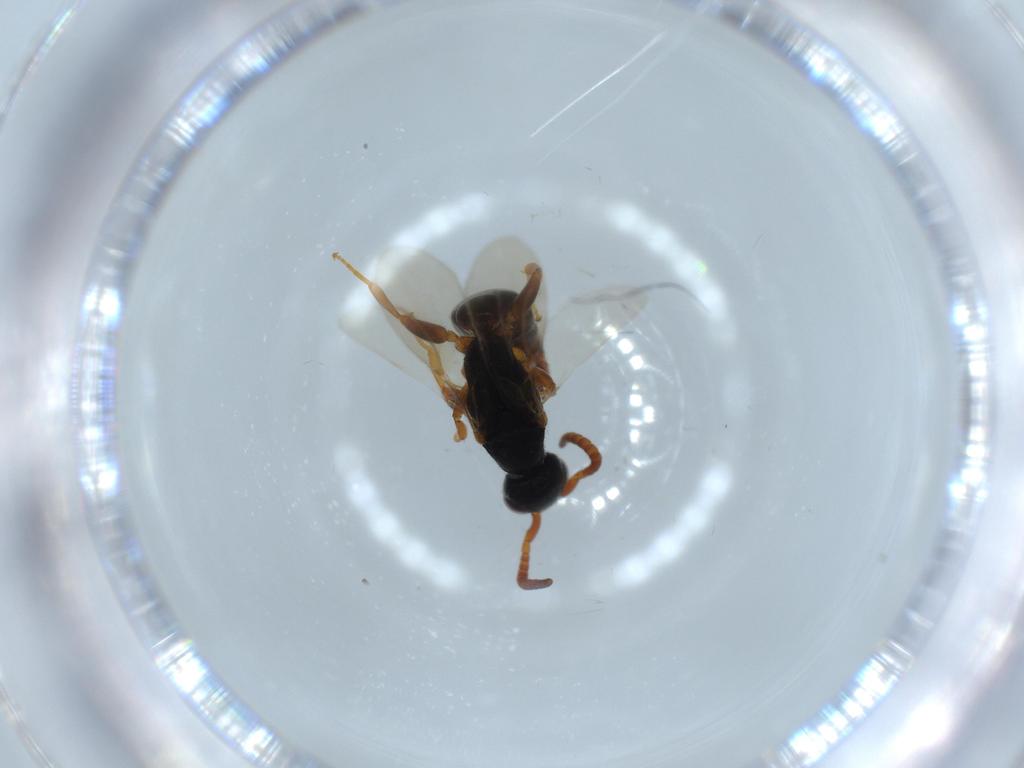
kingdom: Animalia
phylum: Arthropoda
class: Insecta
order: Hymenoptera
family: Bethylidae
